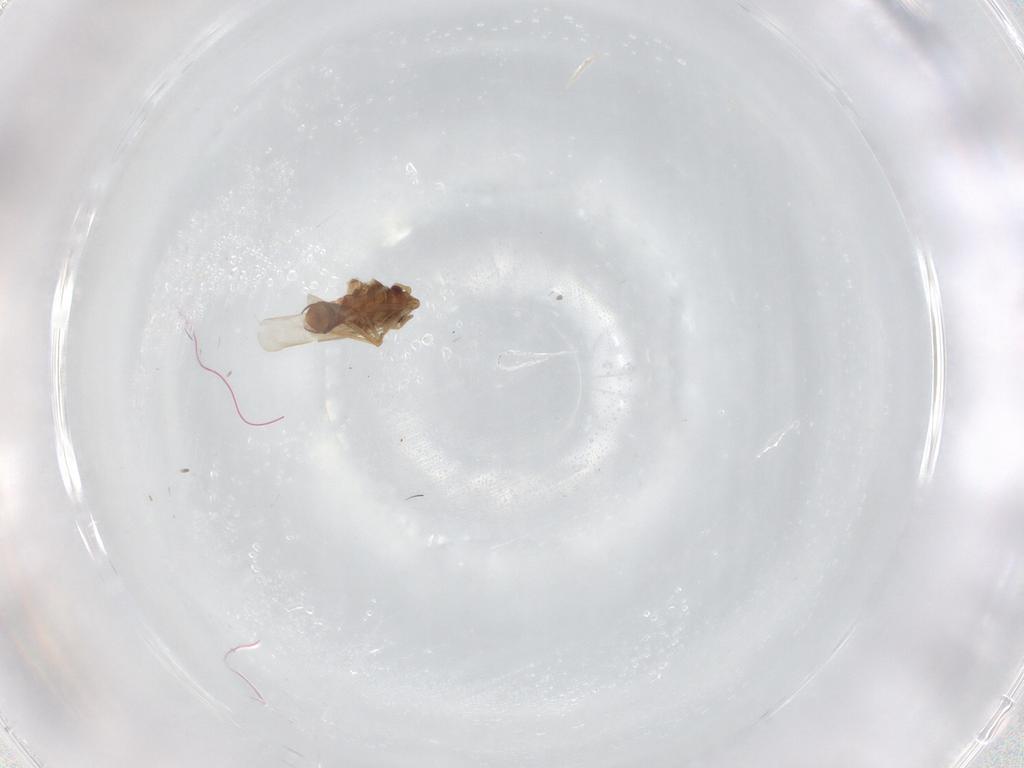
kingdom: Animalia
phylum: Arthropoda
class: Insecta
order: Hemiptera
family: Ceratocombidae
